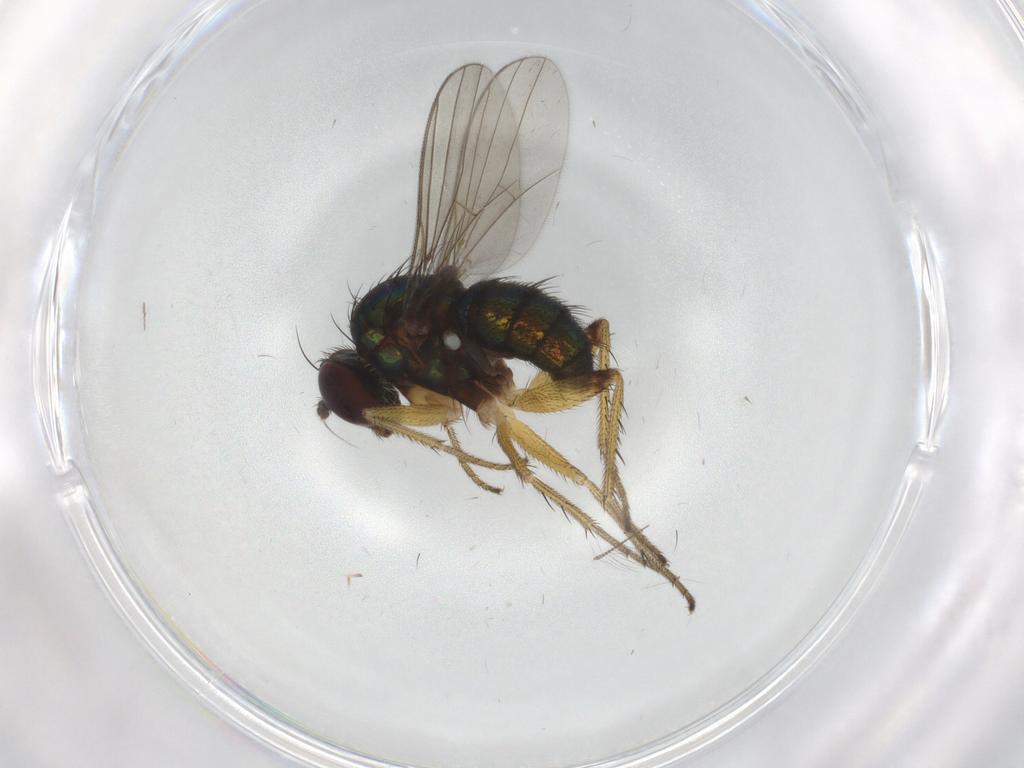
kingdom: Animalia
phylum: Arthropoda
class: Insecta
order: Diptera
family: Dolichopodidae
